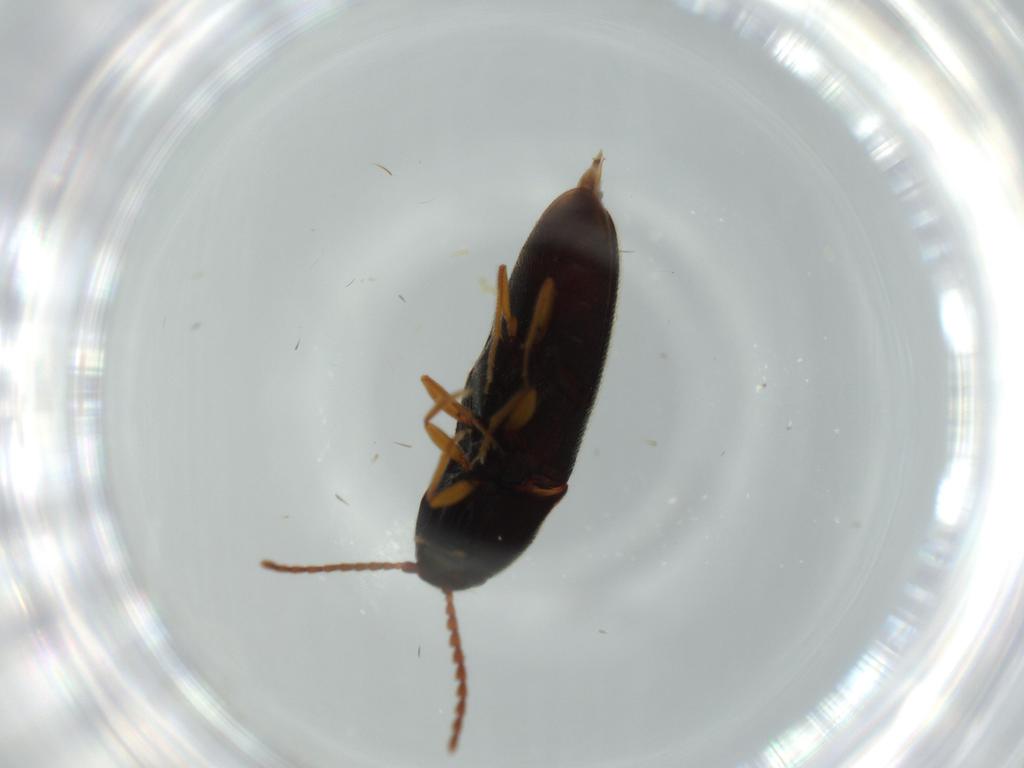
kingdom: Animalia
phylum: Arthropoda
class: Insecta
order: Coleoptera
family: Elateridae
